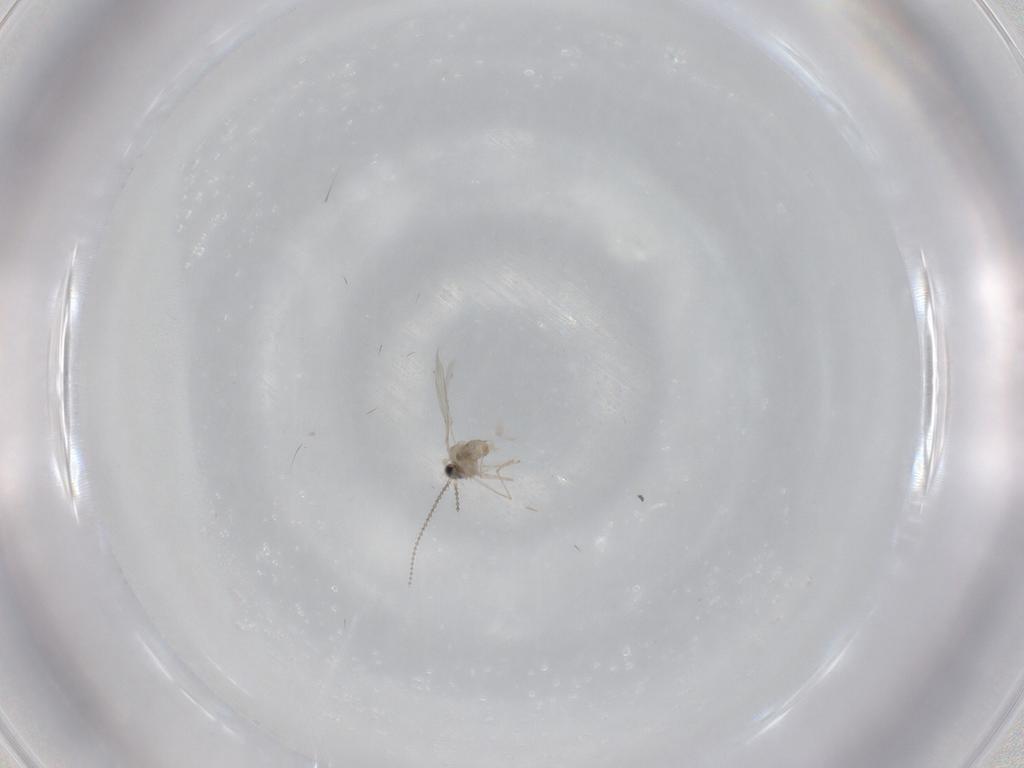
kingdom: Animalia
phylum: Arthropoda
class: Insecta
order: Diptera
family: Cecidomyiidae
